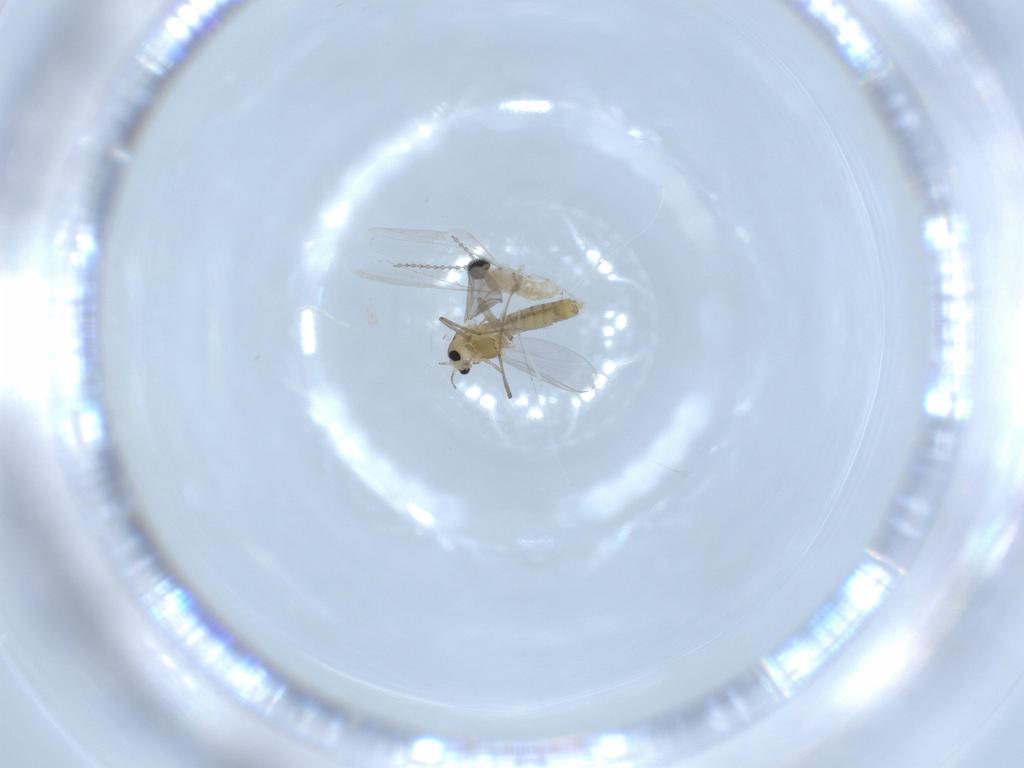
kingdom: Animalia
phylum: Arthropoda
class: Insecta
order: Diptera
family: Chironomidae
